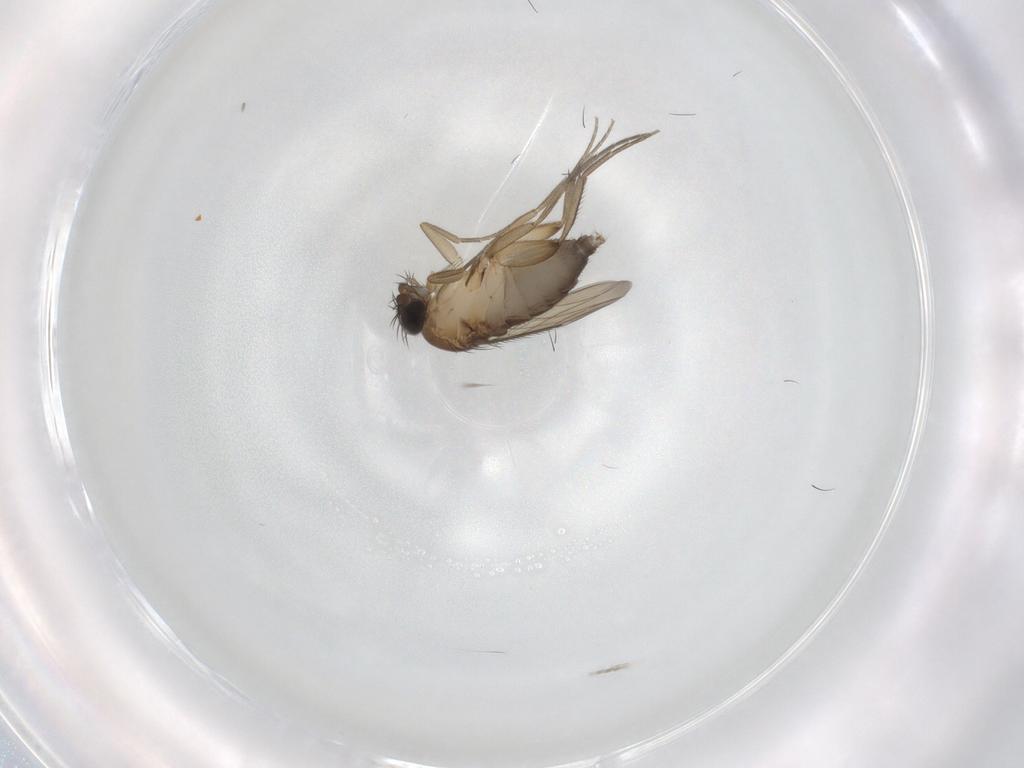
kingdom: Animalia
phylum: Arthropoda
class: Insecta
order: Diptera
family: Phoridae
